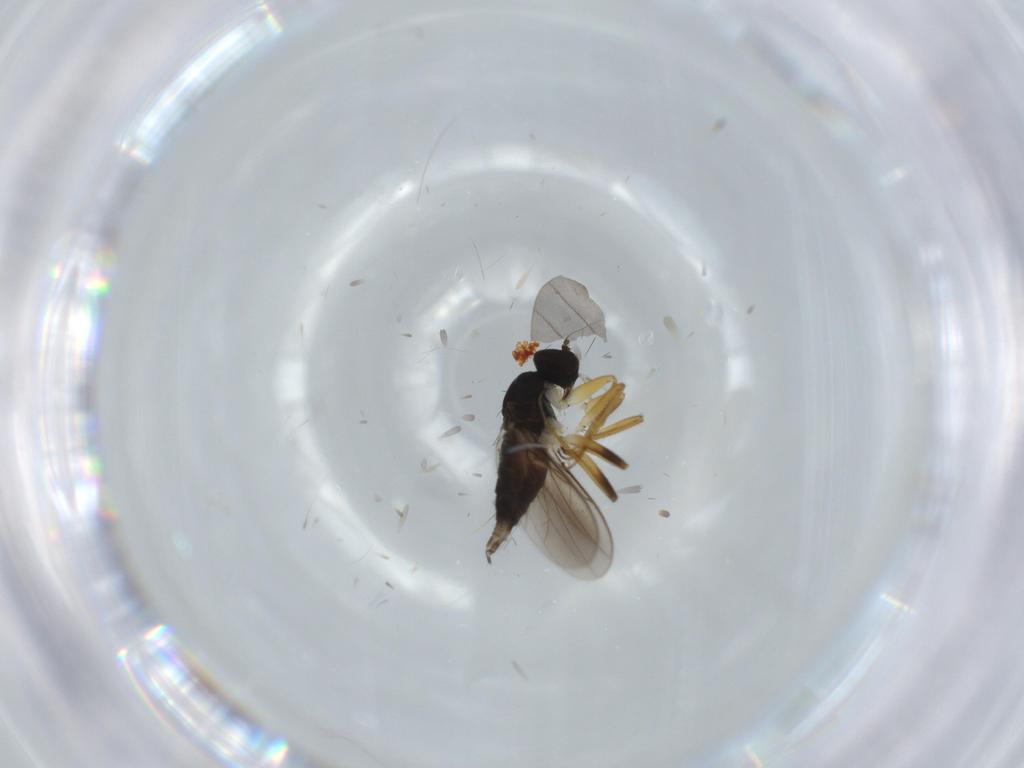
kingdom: Animalia
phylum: Arthropoda
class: Insecta
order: Diptera
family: Hybotidae
